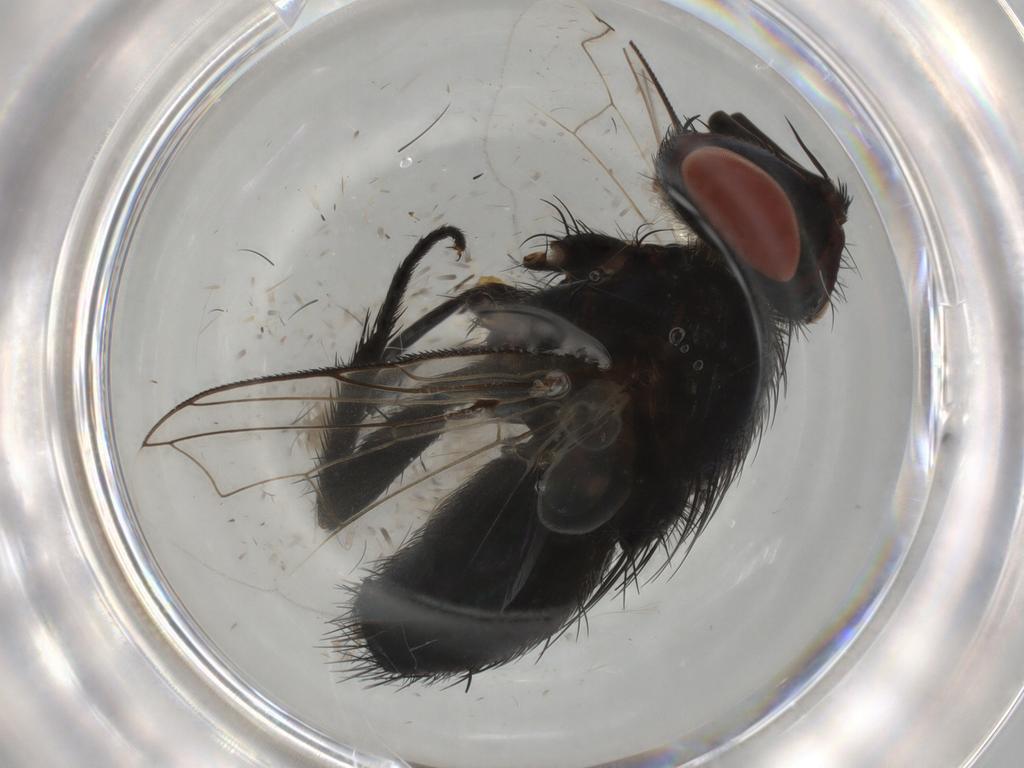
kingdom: Animalia
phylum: Arthropoda
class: Insecta
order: Diptera
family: Tachinidae
